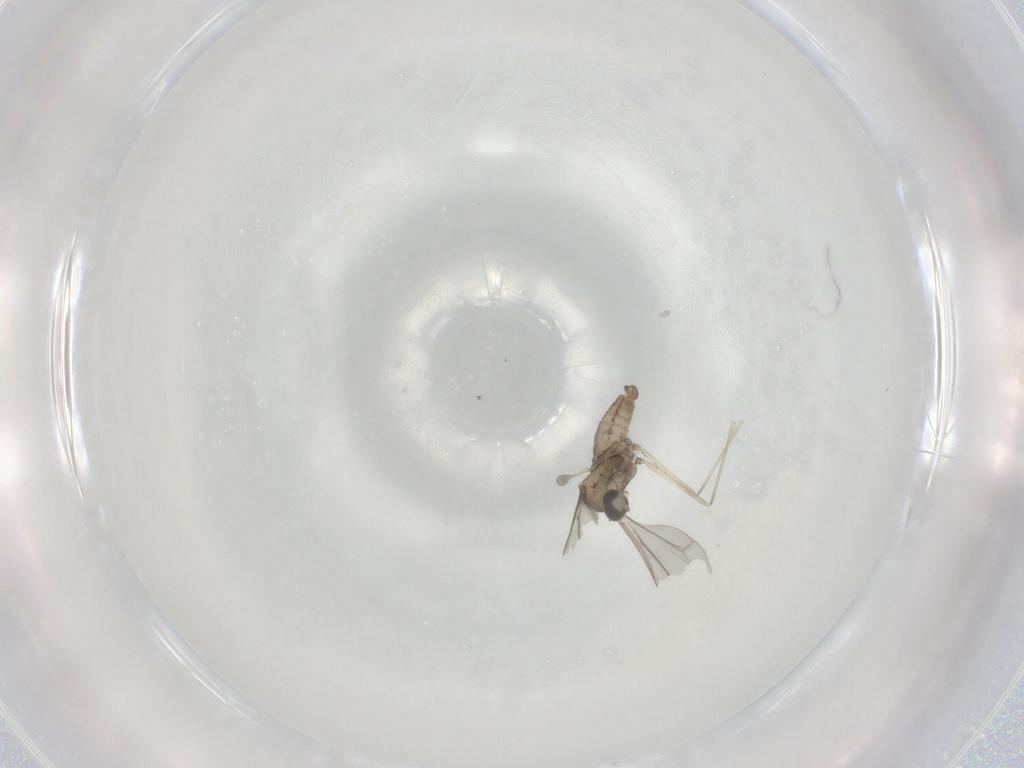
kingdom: Animalia
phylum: Arthropoda
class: Insecta
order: Diptera
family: Cecidomyiidae
